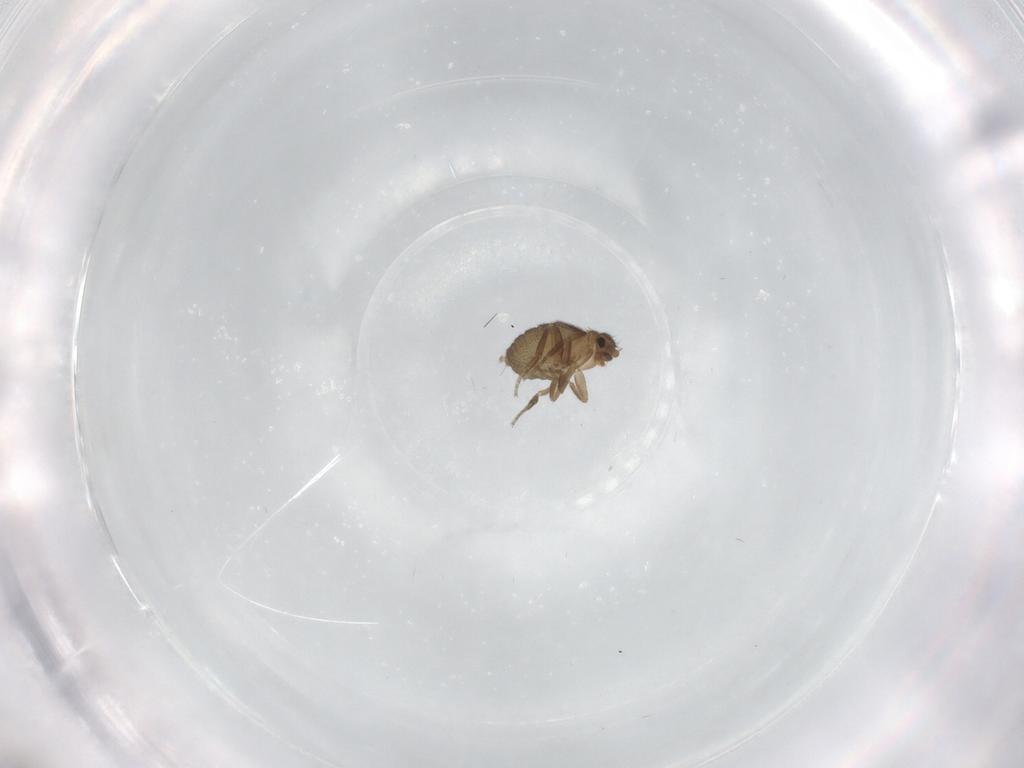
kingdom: Animalia
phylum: Arthropoda
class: Insecta
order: Diptera
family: Phoridae
